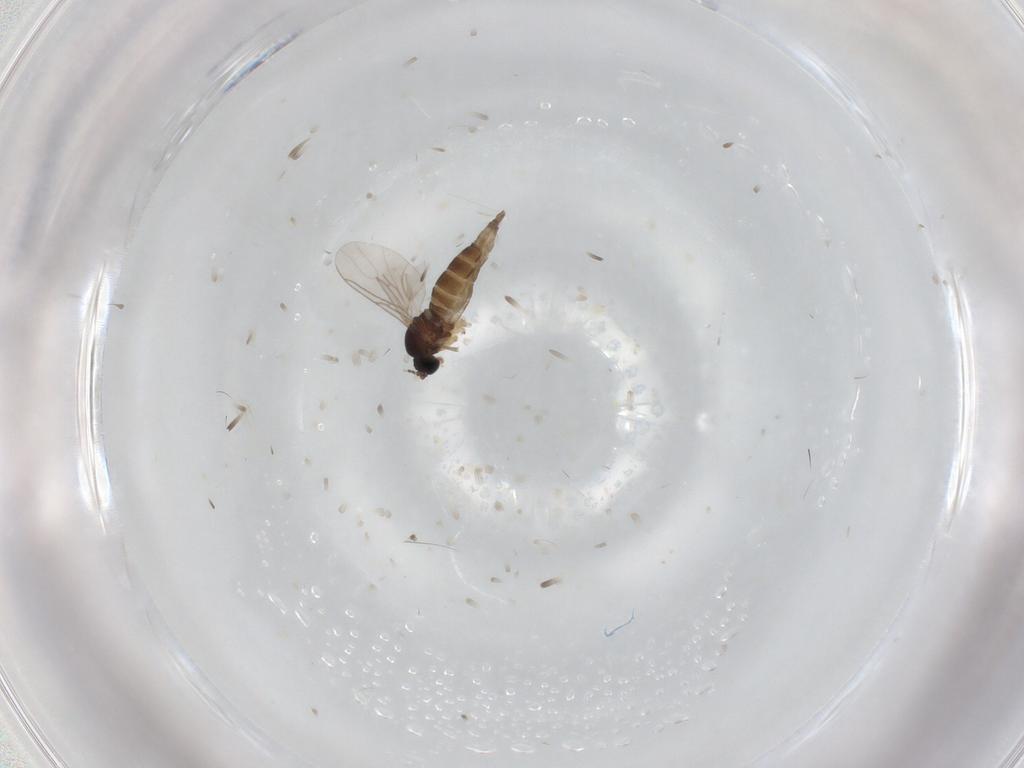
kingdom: Animalia
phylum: Arthropoda
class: Insecta
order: Diptera
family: Sciaridae
